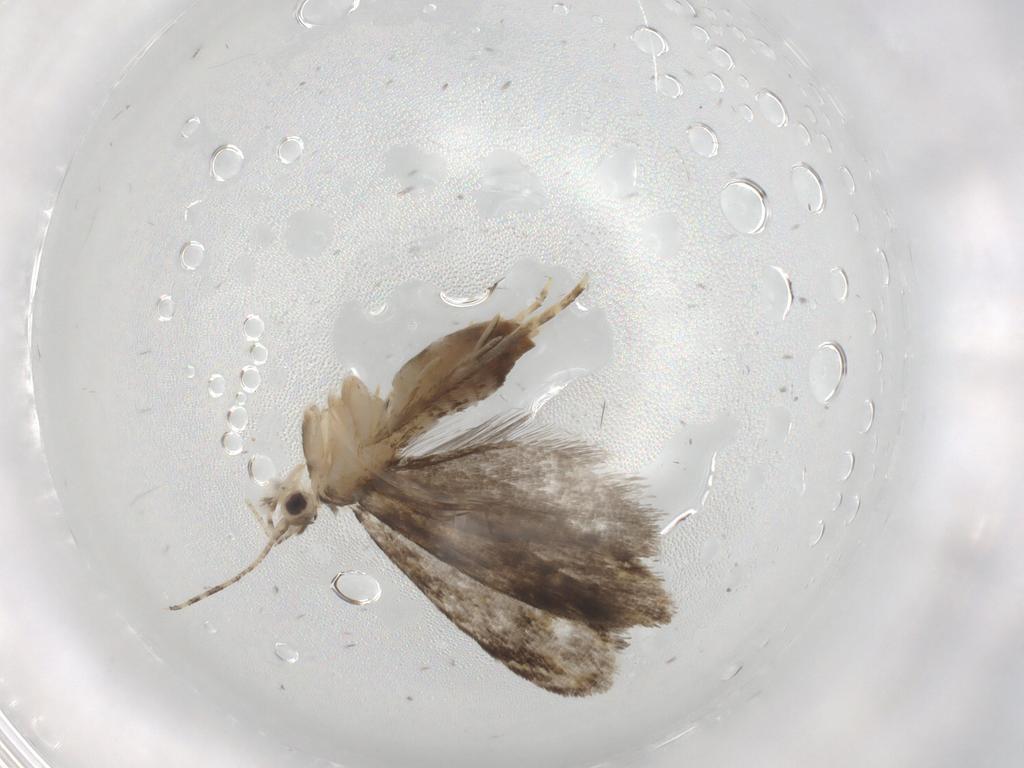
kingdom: Animalia
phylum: Arthropoda
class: Insecta
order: Lepidoptera
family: Tineidae
